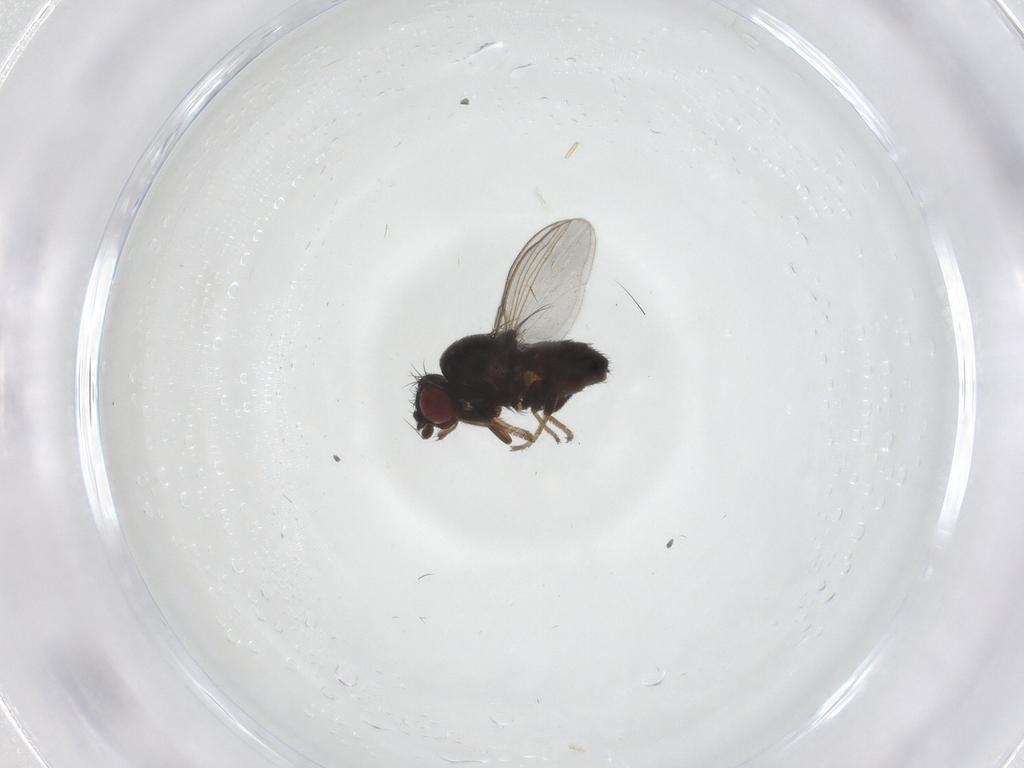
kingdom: Animalia
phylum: Arthropoda
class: Insecta
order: Diptera
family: Milichiidae
